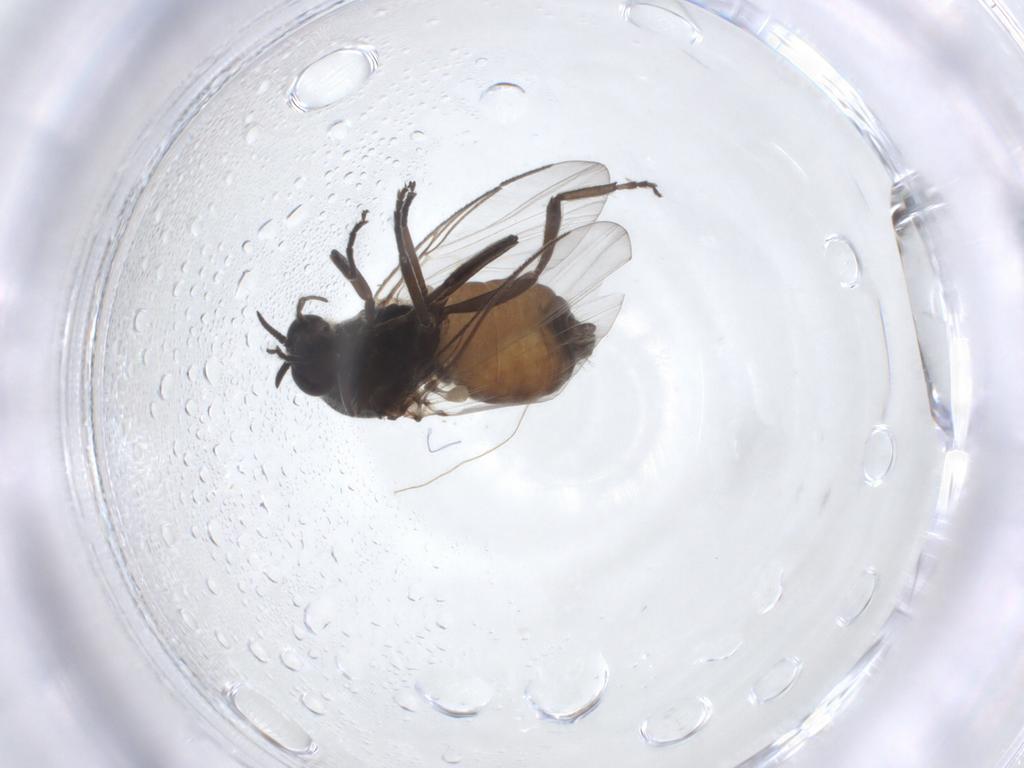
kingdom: Animalia
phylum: Arthropoda
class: Insecta
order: Diptera
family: Simuliidae
